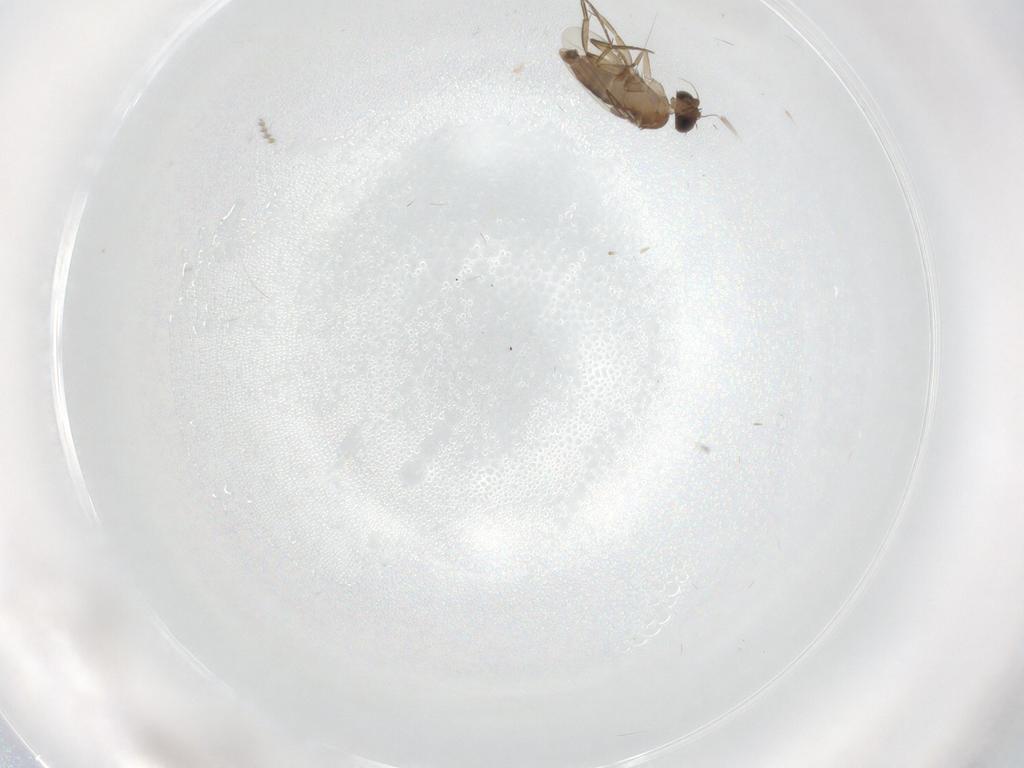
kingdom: Animalia
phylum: Arthropoda
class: Insecta
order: Diptera
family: Phoridae
